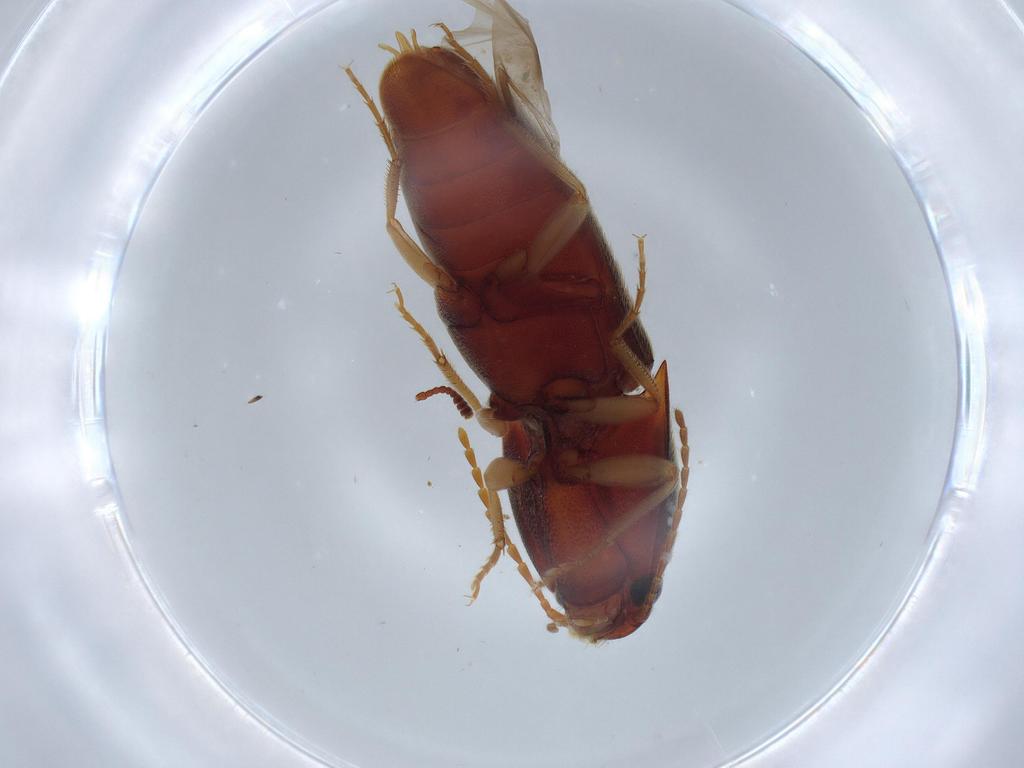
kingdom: Animalia
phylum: Arthropoda
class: Insecta
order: Coleoptera
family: Elateridae
